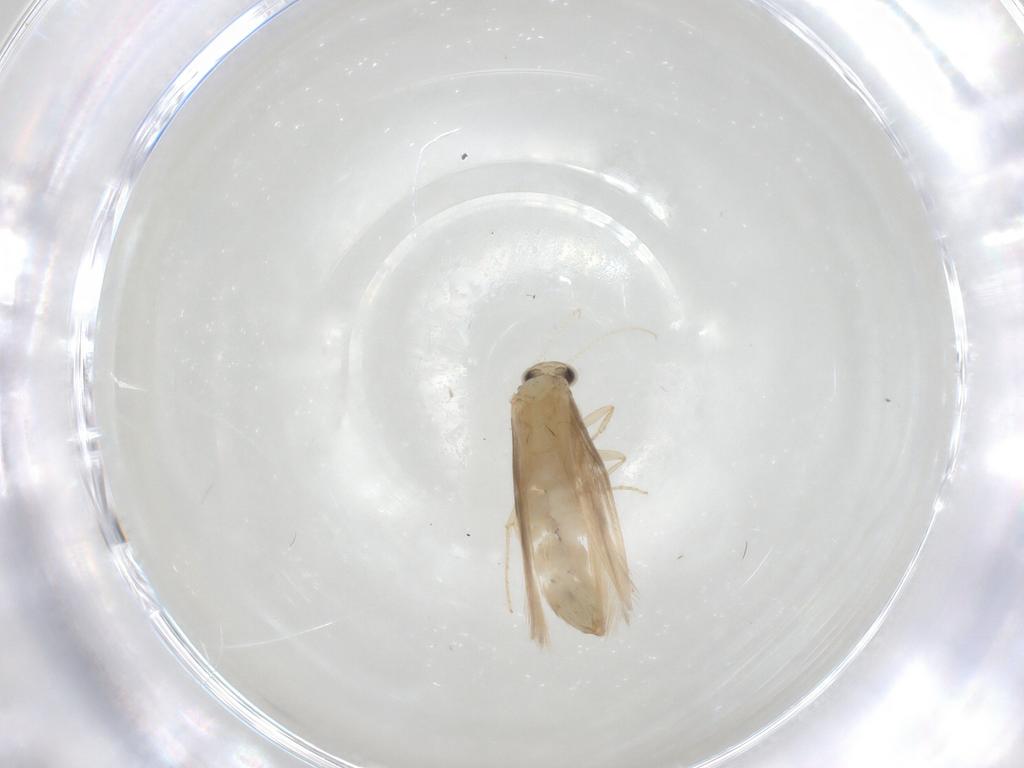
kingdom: Animalia
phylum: Arthropoda
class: Insecta
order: Trichoptera
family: Hydroptilidae
